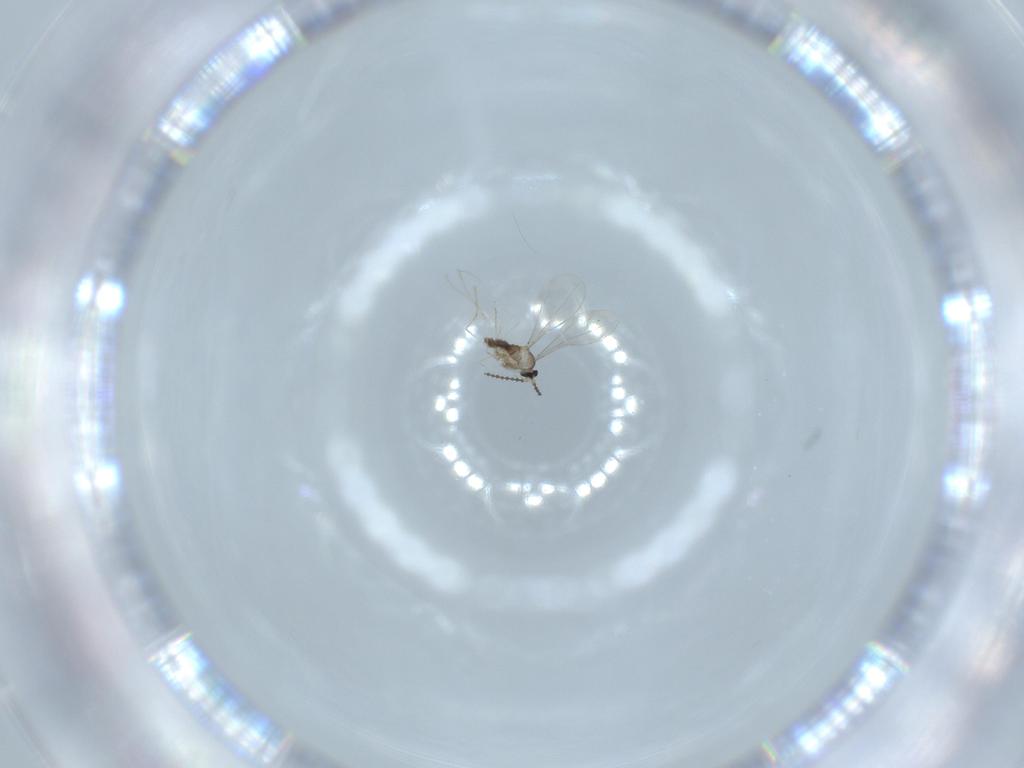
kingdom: Animalia
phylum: Arthropoda
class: Insecta
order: Diptera
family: Cecidomyiidae
